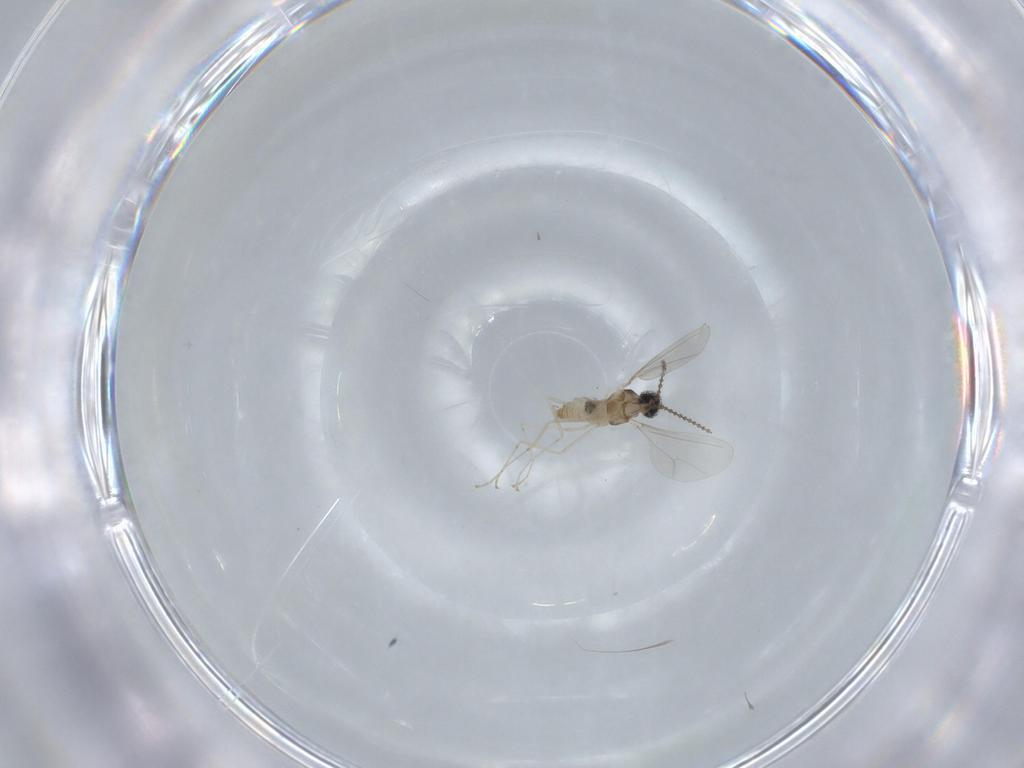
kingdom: Animalia
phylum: Arthropoda
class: Insecta
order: Diptera
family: Cecidomyiidae
